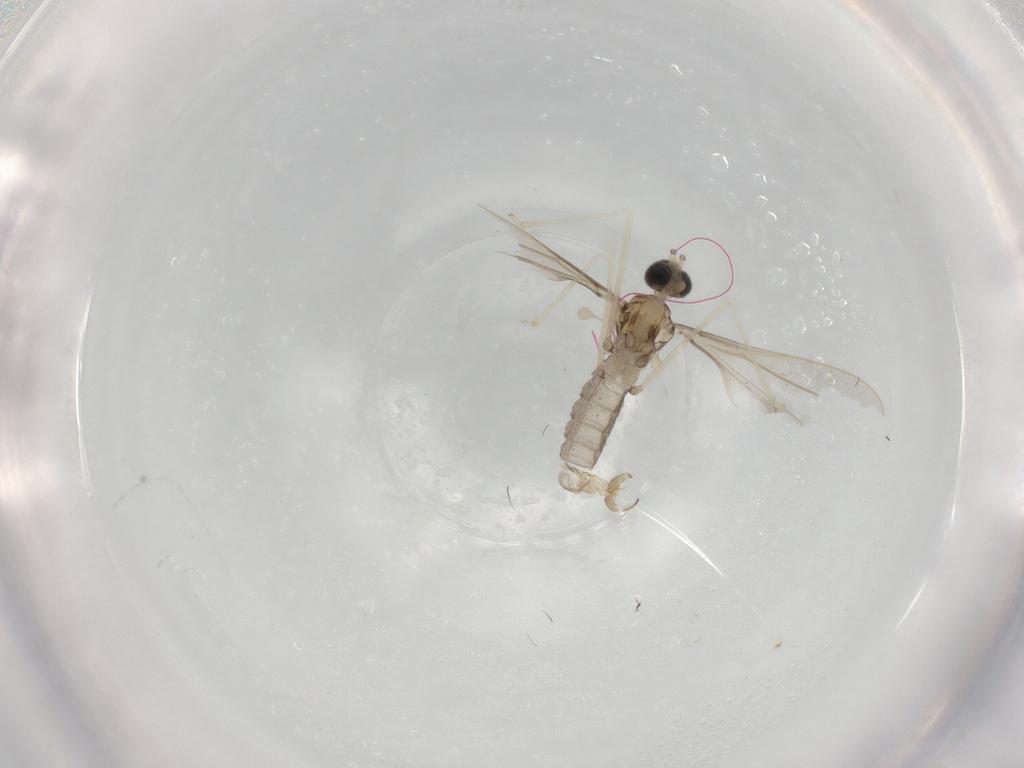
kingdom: Animalia
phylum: Arthropoda
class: Insecta
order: Diptera
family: Cecidomyiidae
